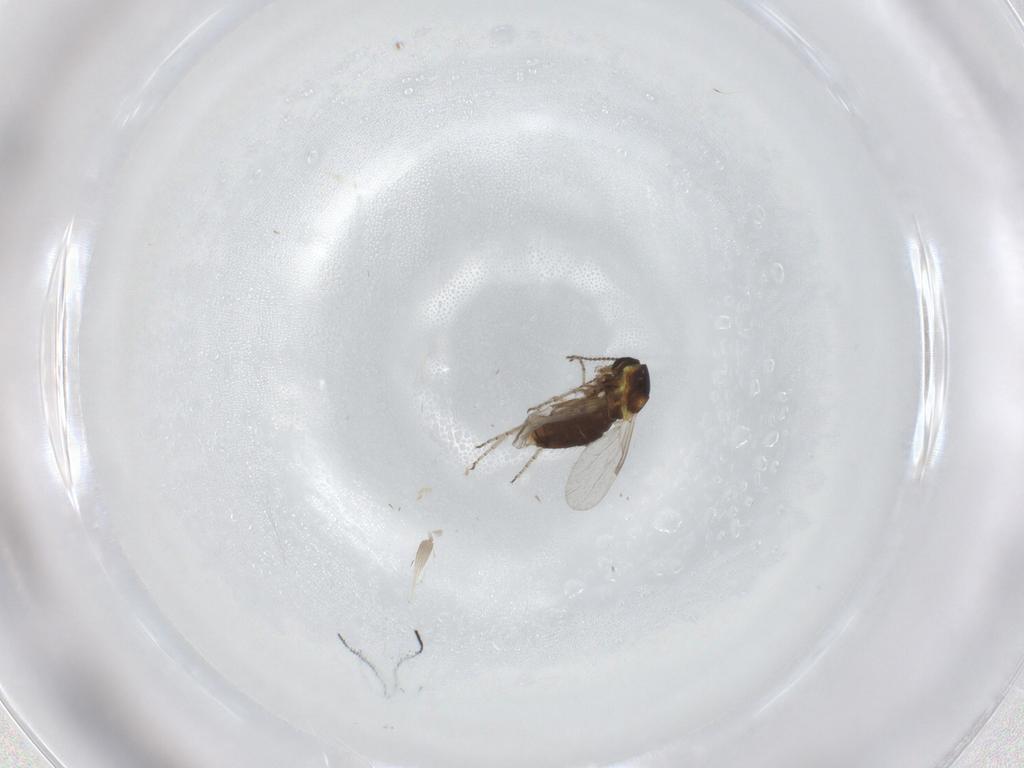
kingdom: Animalia
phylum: Arthropoda
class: Insecta
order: Diptera
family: Ceratopogonidae
